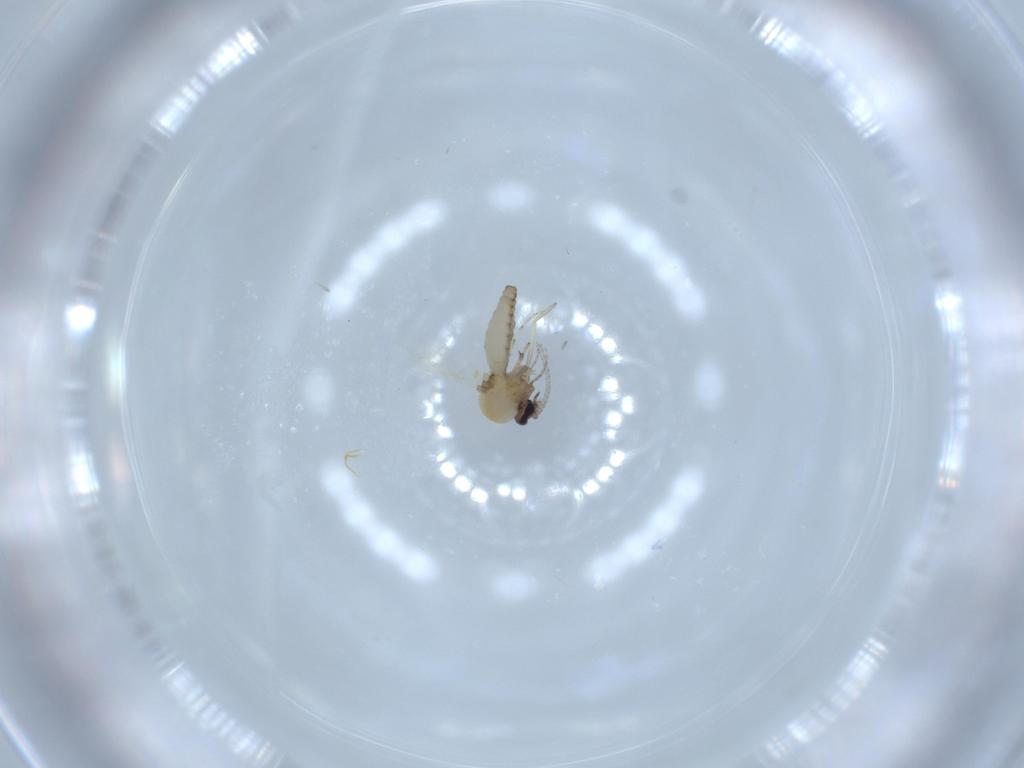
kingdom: Animalia
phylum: Arthropoda
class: Insecta
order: Diptera
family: Ceratopogonidae
